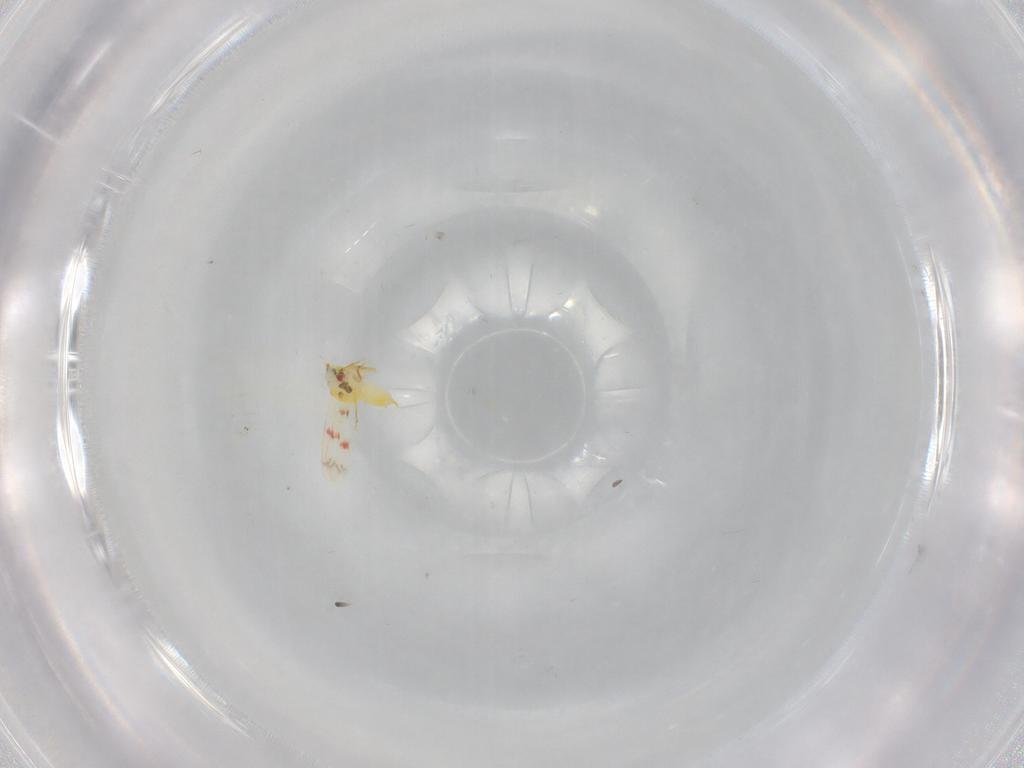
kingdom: Animalia
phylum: Arthropoda
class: Insecta
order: Hemiptera
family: Aleyrodidae
